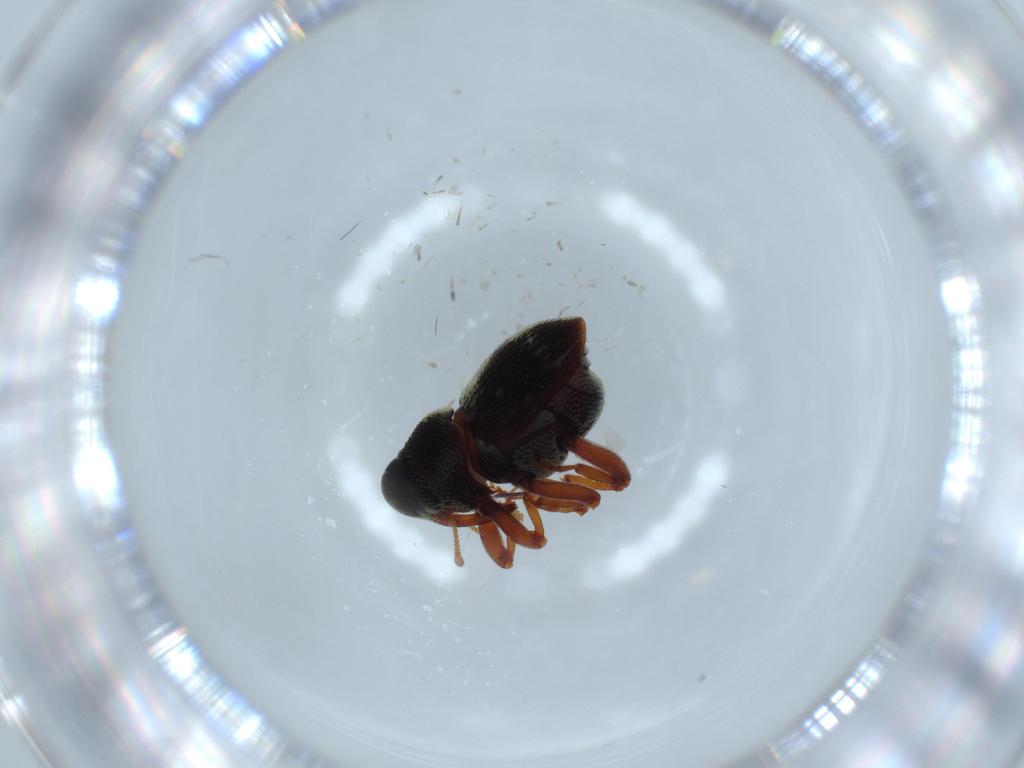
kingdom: Animalia
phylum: Arthropoda
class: Insecta
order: Coleoptera
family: Curculionidae
